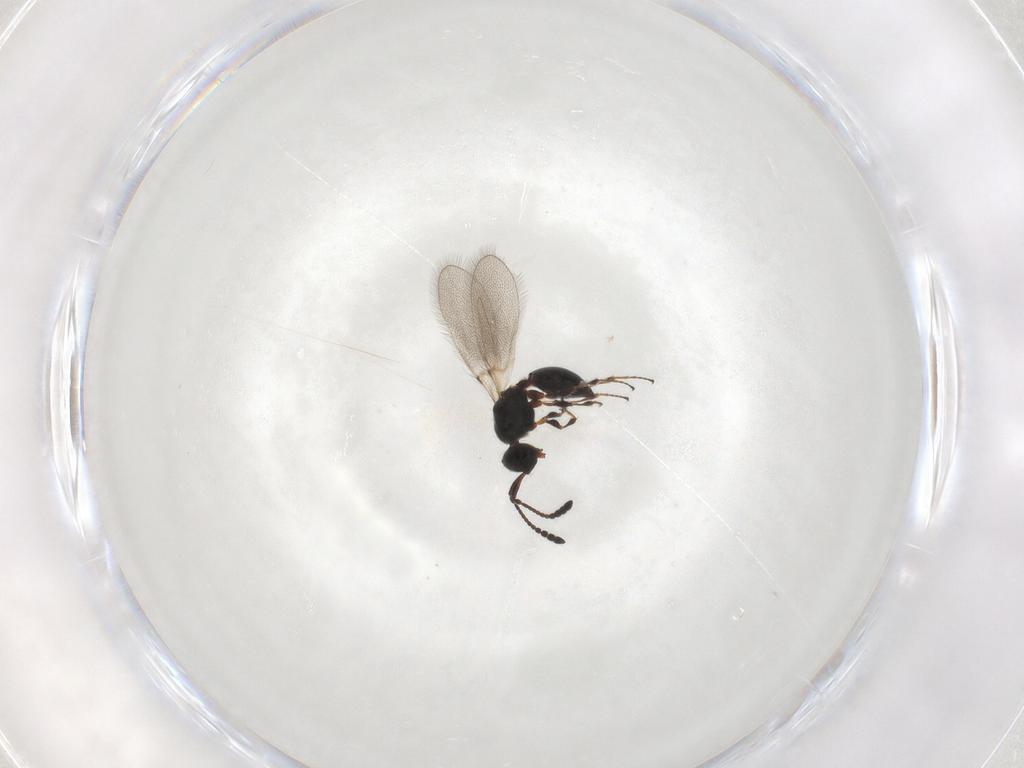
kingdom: Animalia
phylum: Arthropoda
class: Insecta
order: Hymenoptera
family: Diapriidae
